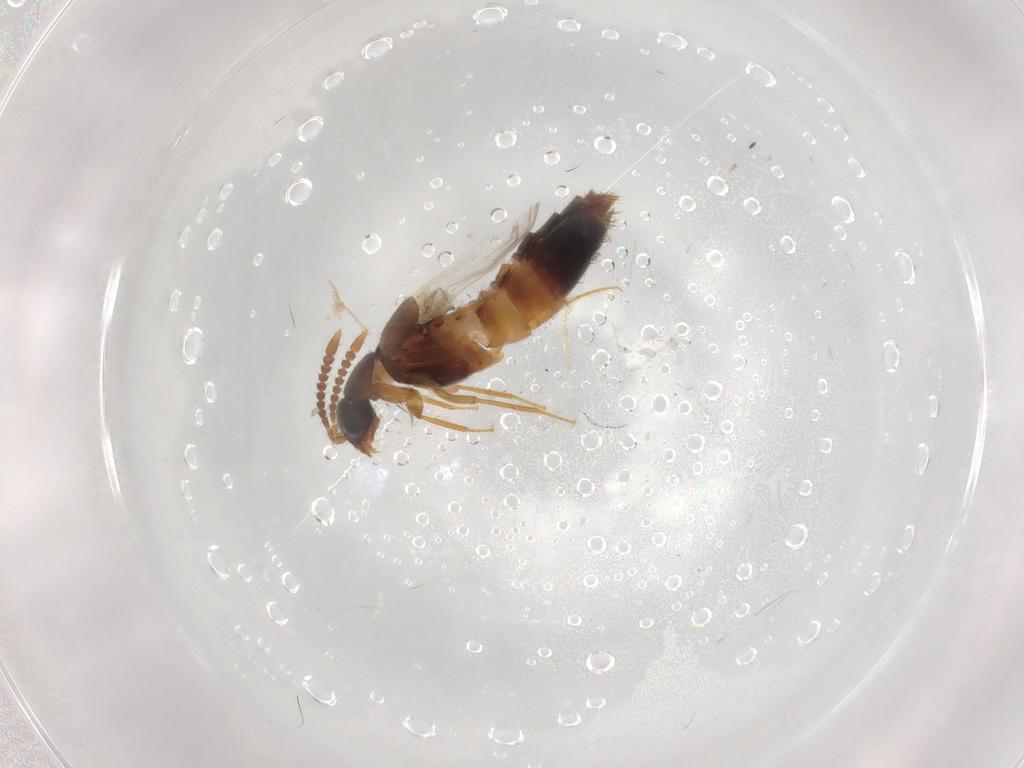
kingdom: Animalia
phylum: Arthropoda
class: Insecta
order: Coleoptera
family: Staphylinidae
